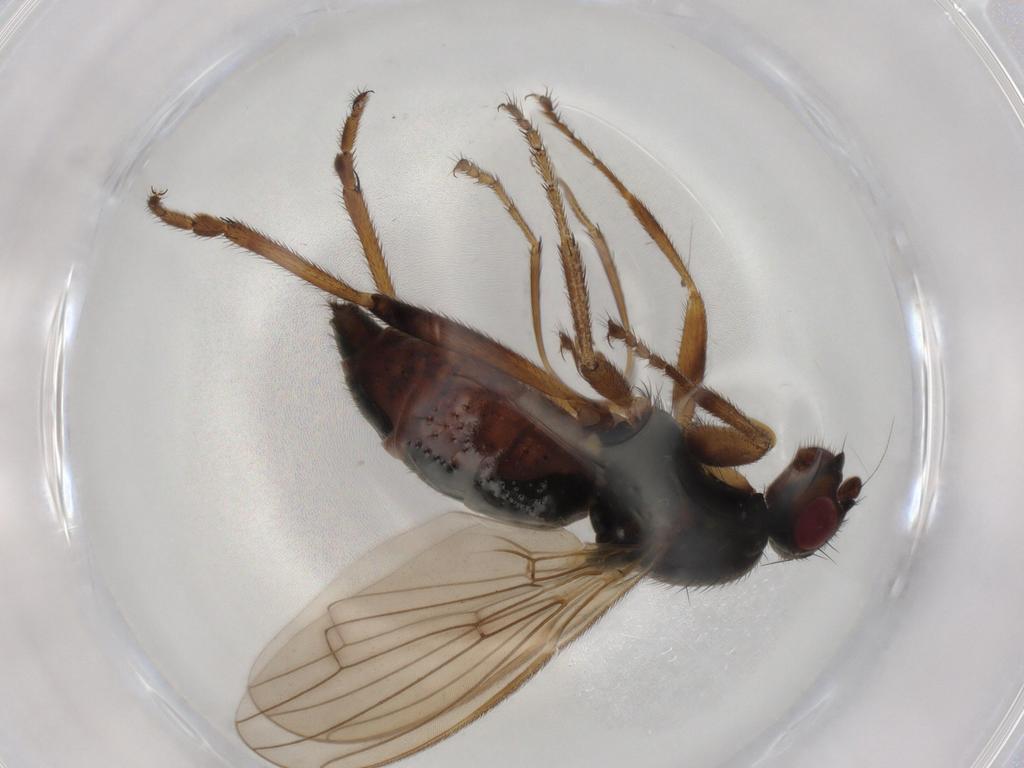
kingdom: Animalia
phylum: Arthropoda
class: Insecta
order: Diptera
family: Sphaeroceridae
